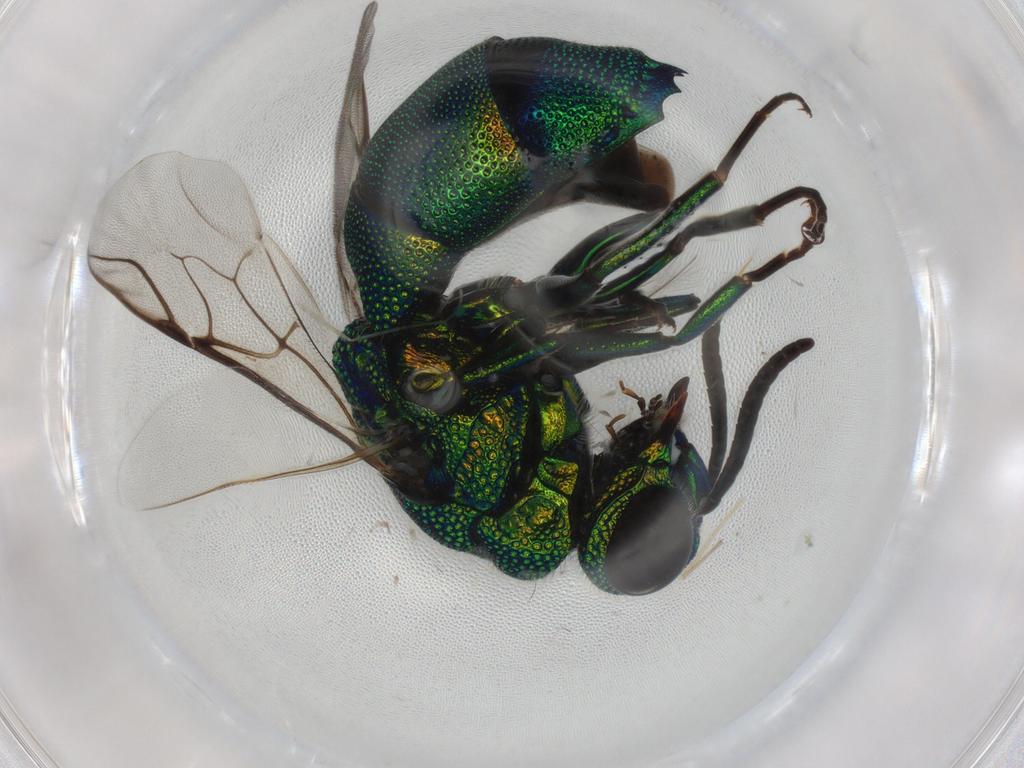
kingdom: Animalia
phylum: Arthropoda
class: Insecta
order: Hymenoptera
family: Chrysididae
